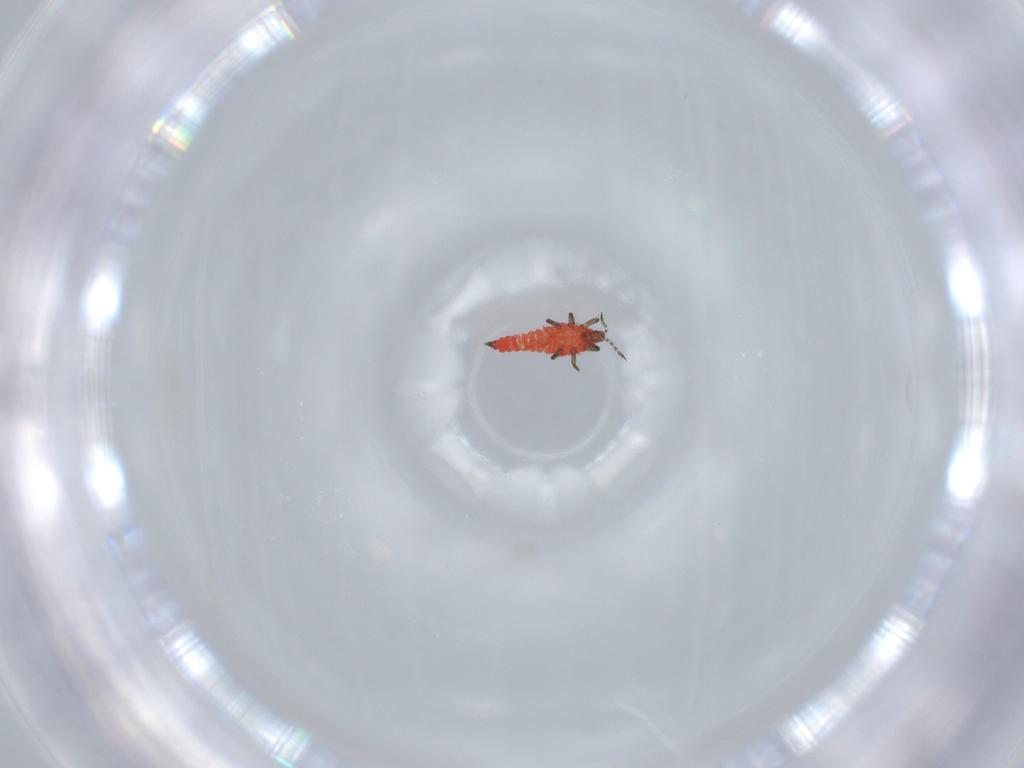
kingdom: Animalia
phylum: Arthropoda
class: Insecta
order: Thysanoptera
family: Phlaeothripidae
